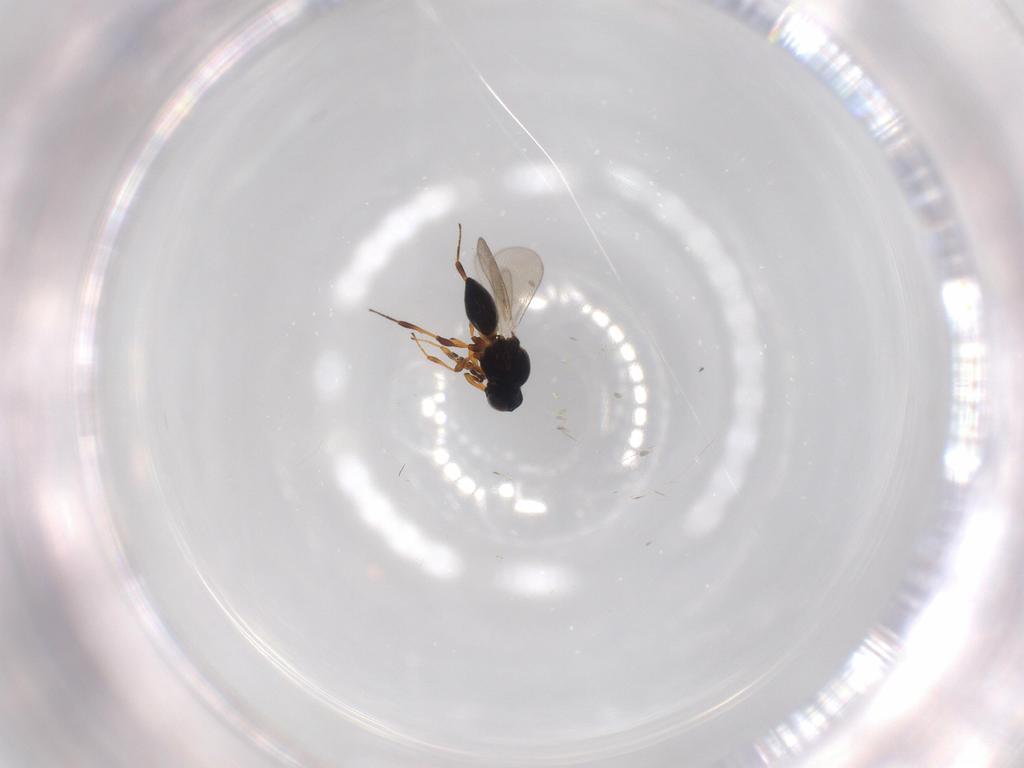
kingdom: Animalia
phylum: Arthropoda
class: Insecta
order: Hymenoptera
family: Platygastridae
